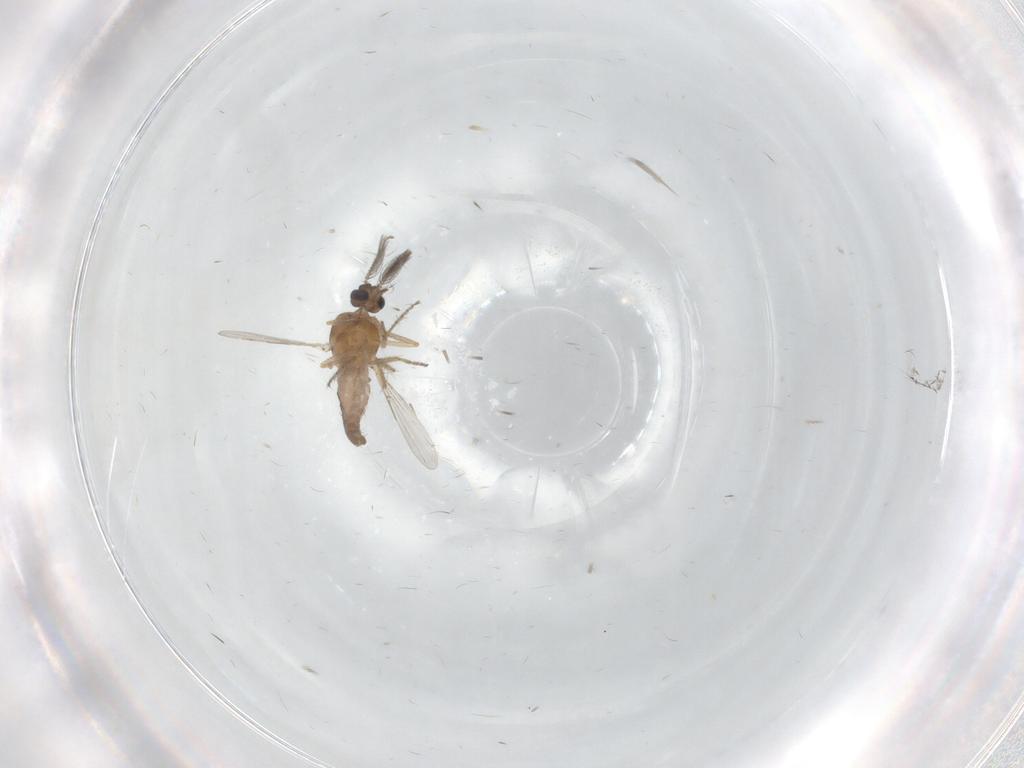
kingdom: Animalia
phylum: Arthropoda
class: Insecta
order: Diptera
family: Ceratopogonidae
